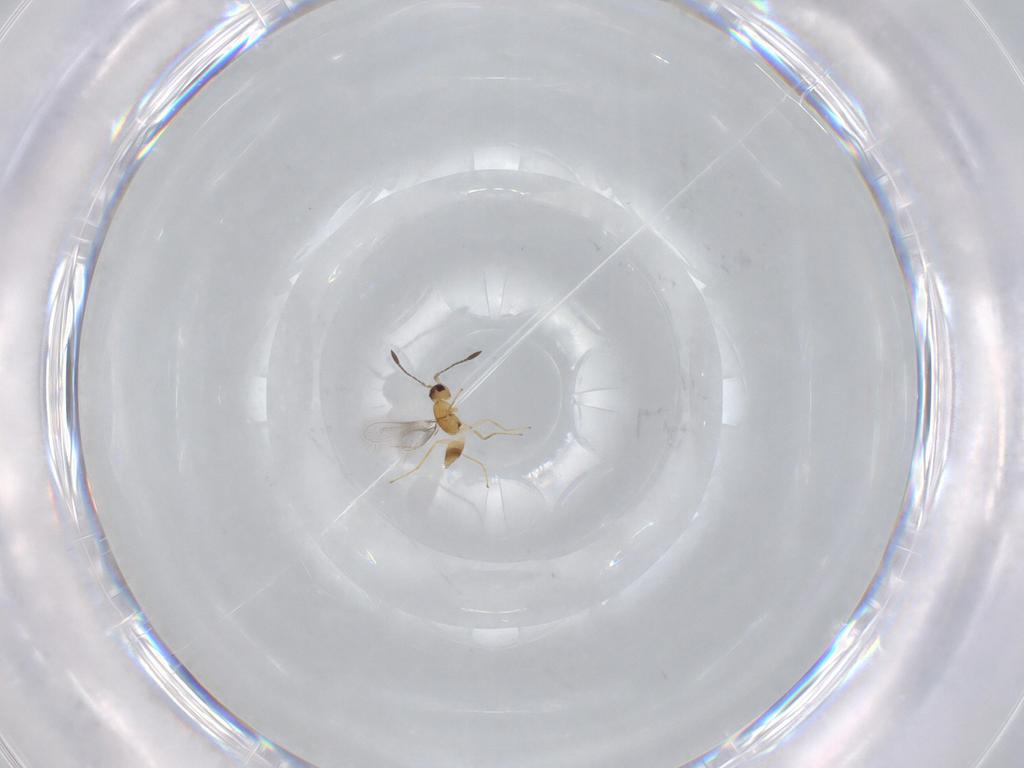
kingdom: Animalia
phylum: Arthropoda
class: Insecta
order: Hymenoptera
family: Mymaridae
